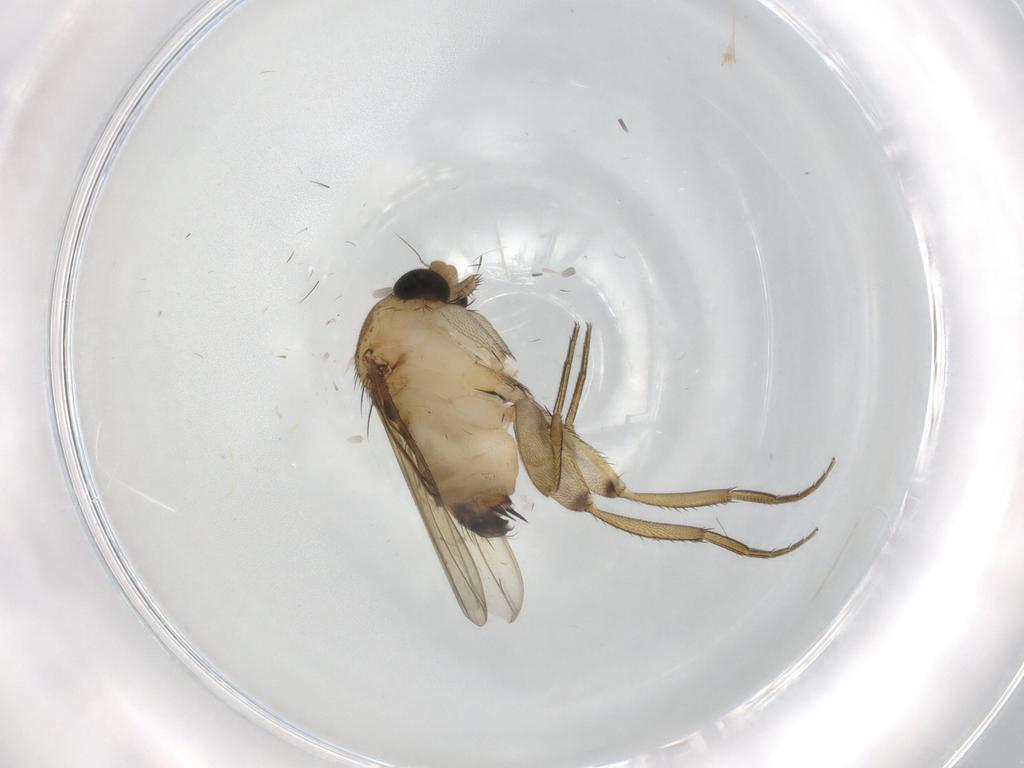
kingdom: Animalia
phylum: Arthropoda
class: Insecta
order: Diptera
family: Phoridae
